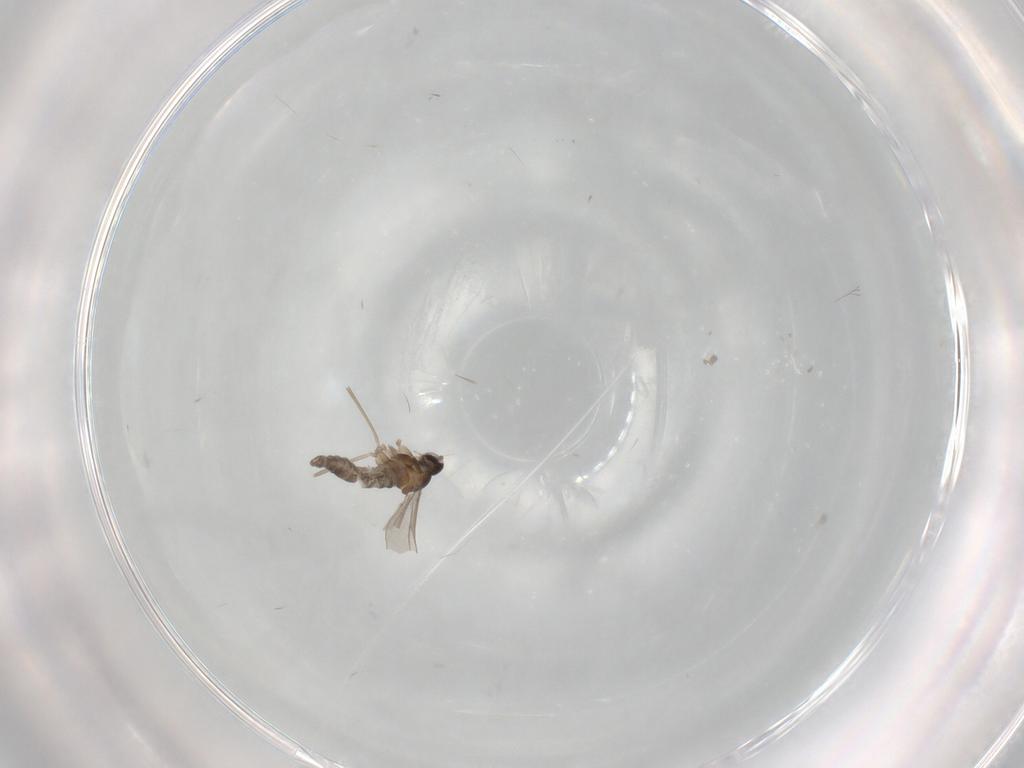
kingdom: Animalia
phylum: Arthropoda
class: Insecta
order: Diptera
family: Cecidomyiidae
